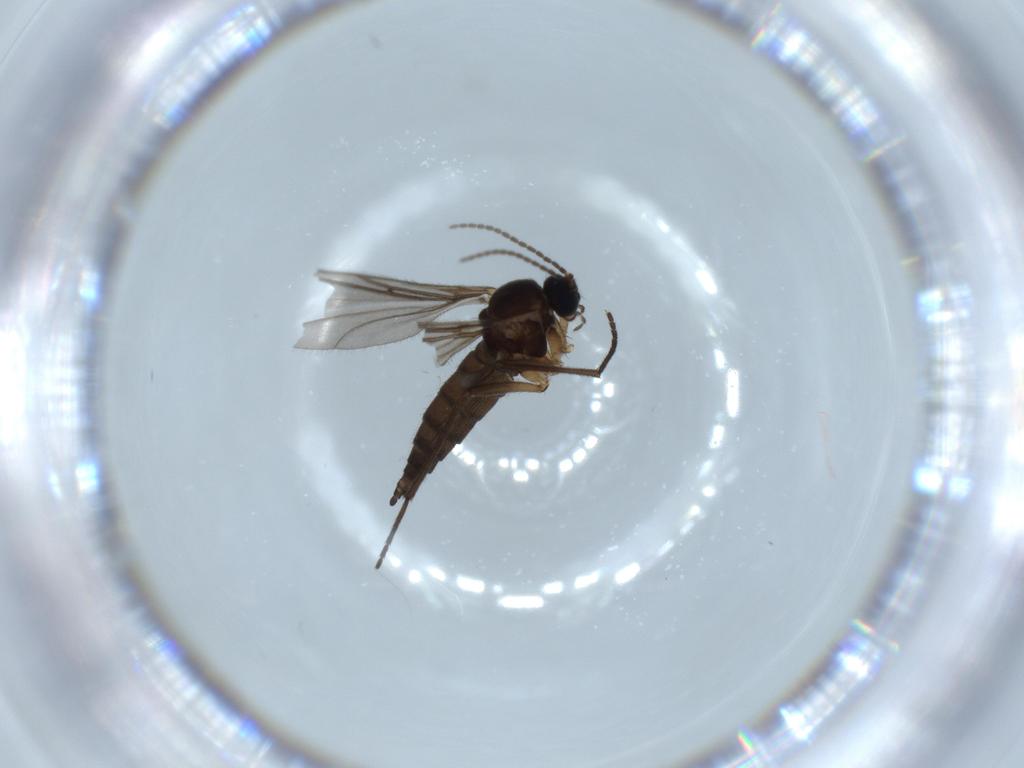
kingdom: Animalia
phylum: Arthropoda
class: Insecta
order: Diptera
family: Sciaridae
